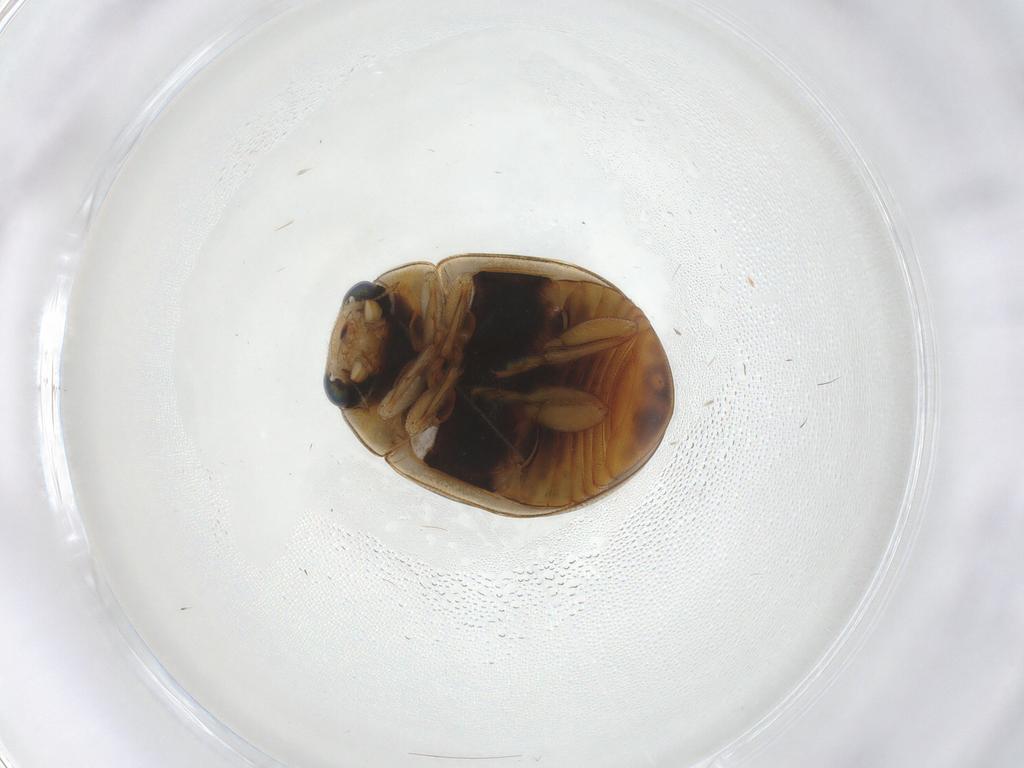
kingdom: Animalia
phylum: Arthropoda
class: Insecta
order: Coleoptera
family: Coccinellidae
